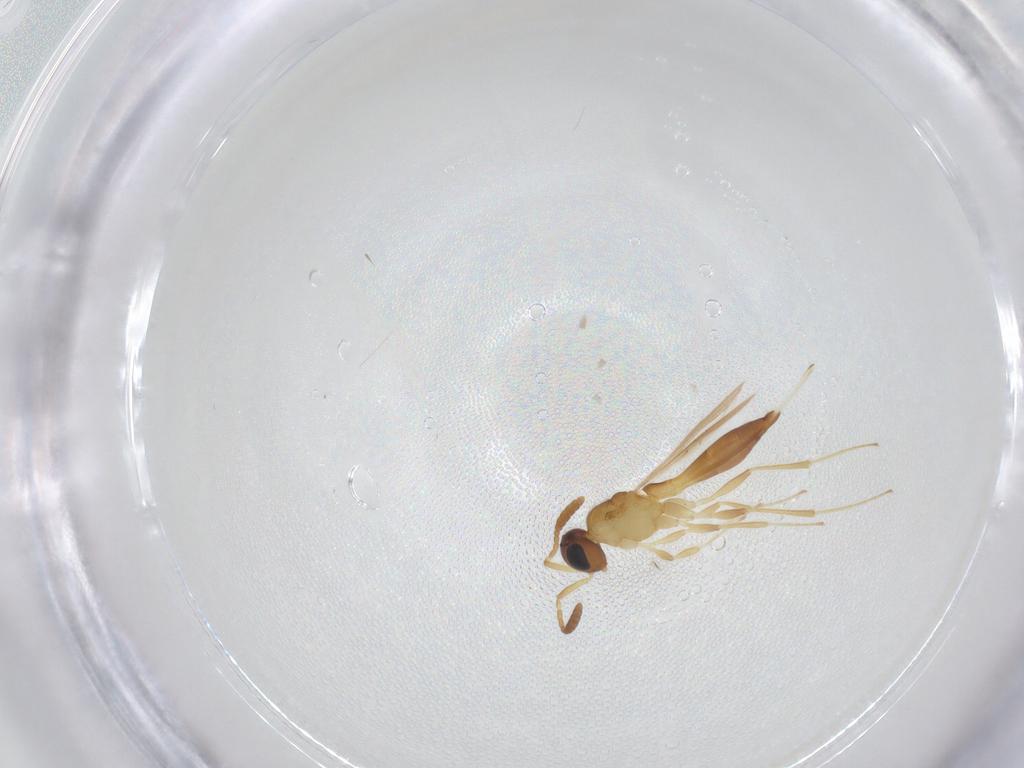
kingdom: Animalia
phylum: Arthropoda
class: Insecta
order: Hymenoptera
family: Scelionidae
